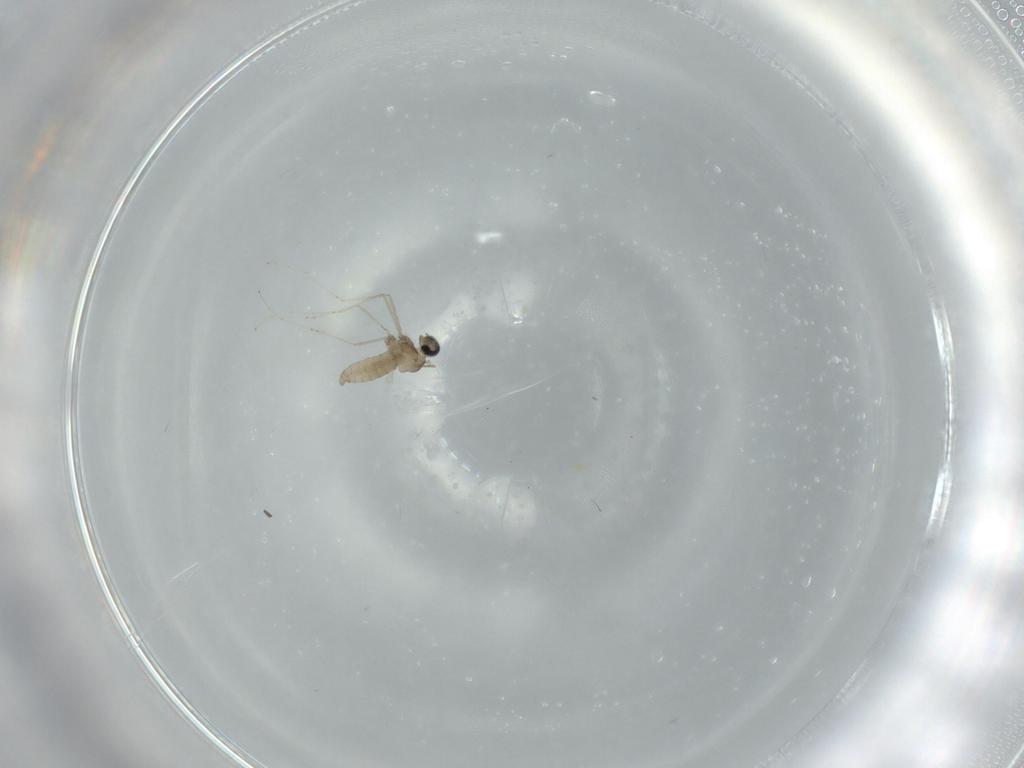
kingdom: Animalia
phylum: Arthropoda
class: Insecta
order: Diptera
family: Cecidomyiidae
